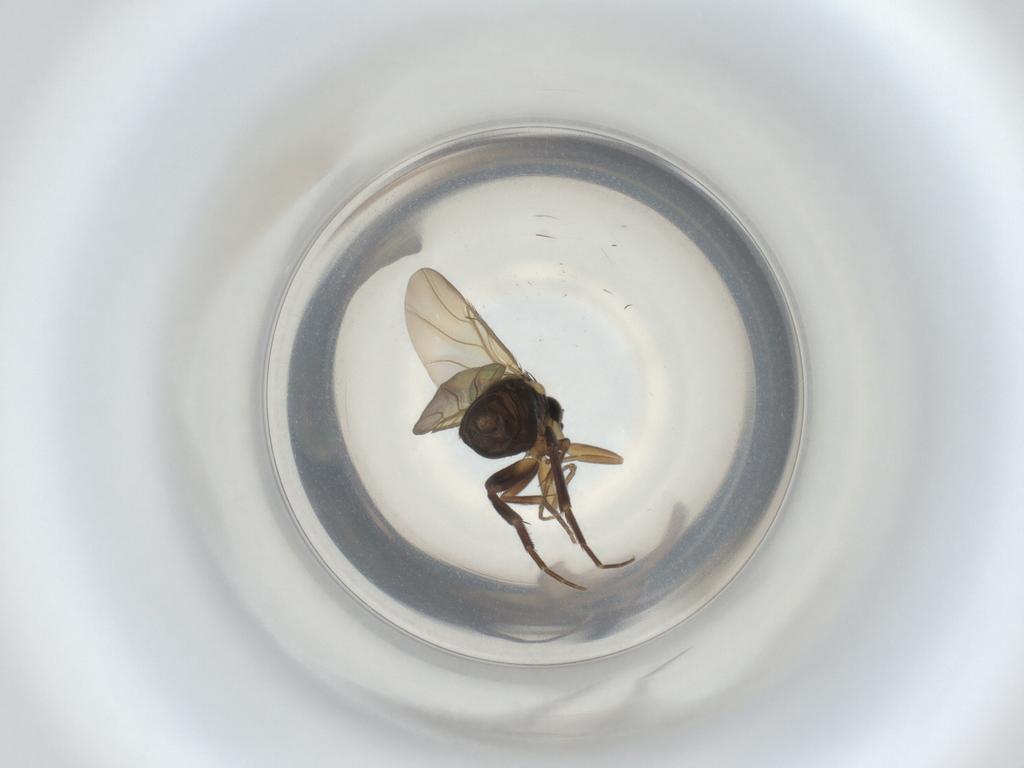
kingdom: Animalia
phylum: Arthropoda
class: Insecta
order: Diptera
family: Phoridae
